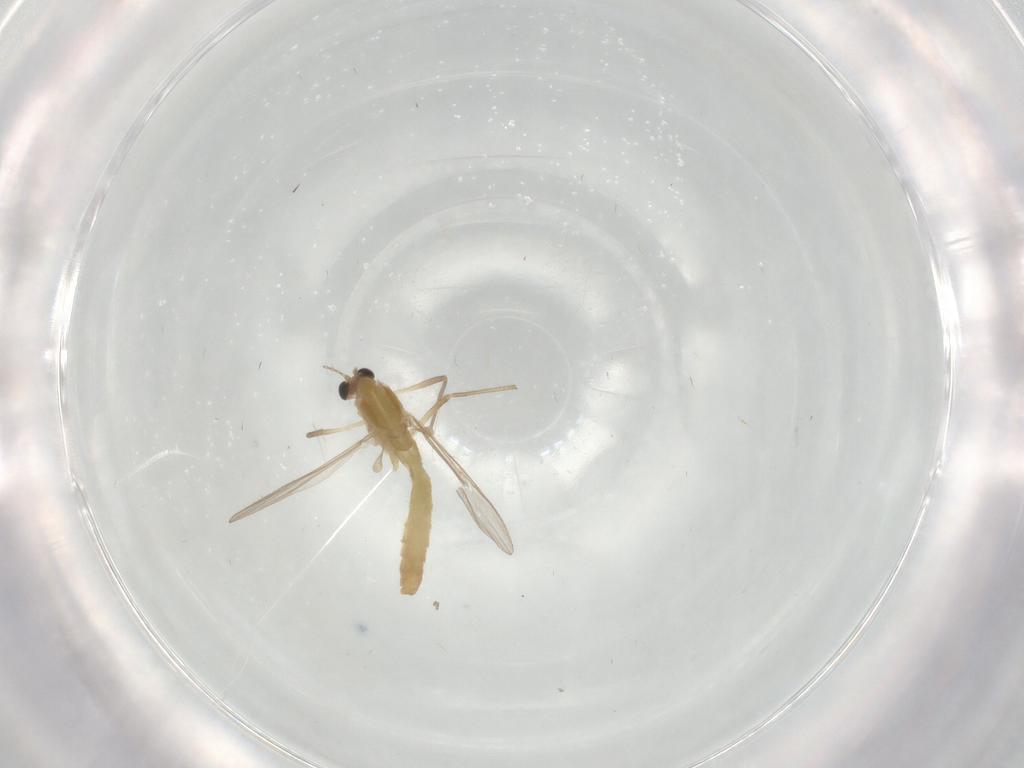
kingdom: Animalia
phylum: Arthropoda
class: Insecta
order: Diptera
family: Chironomidae
